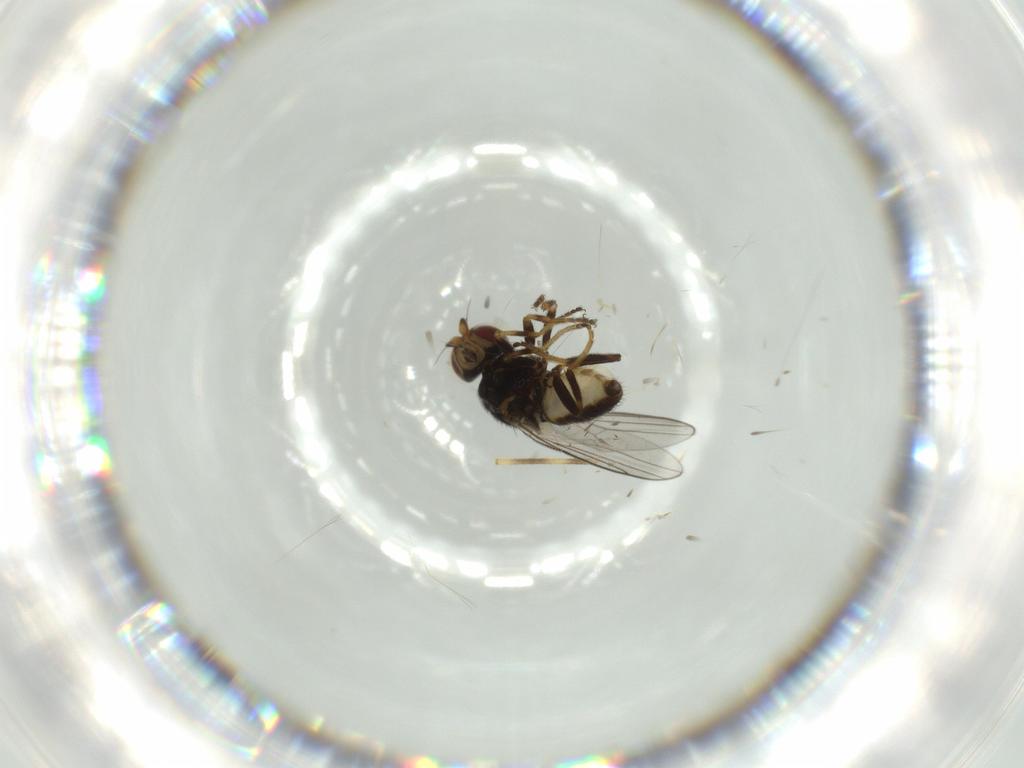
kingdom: Animalia
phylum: Arthropoda
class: Insecta
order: Diptera
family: Chloropidae
